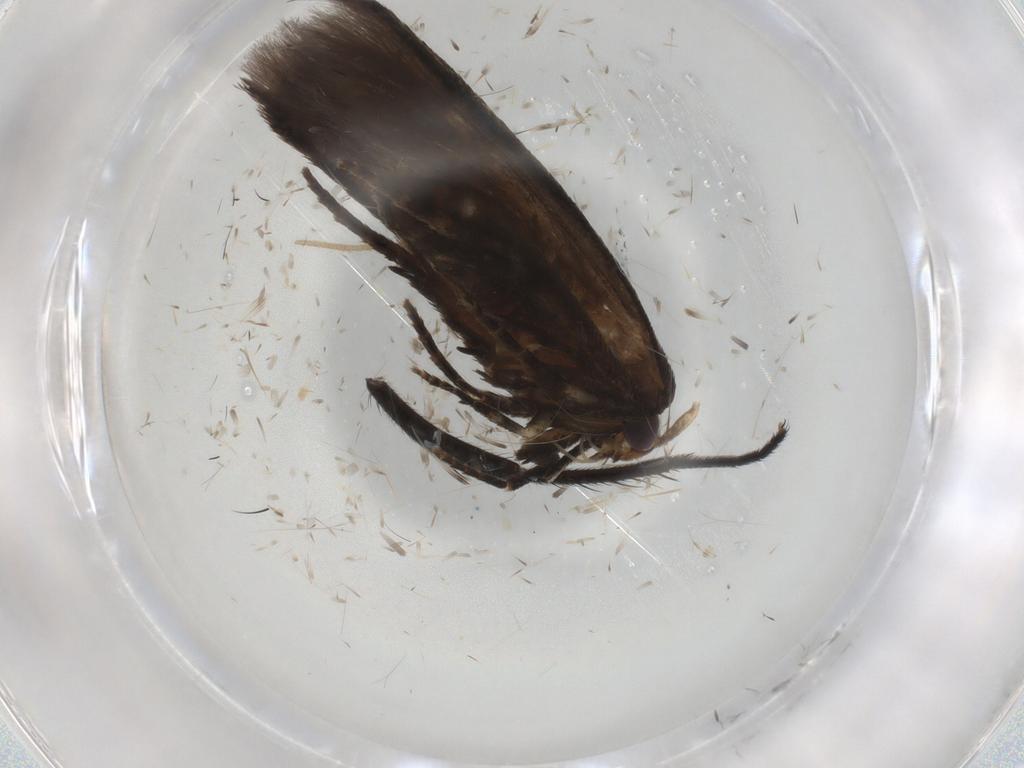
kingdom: Animalia
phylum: Arthropoda
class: Insecta
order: Lepidoptera
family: Cosmopterigidae
